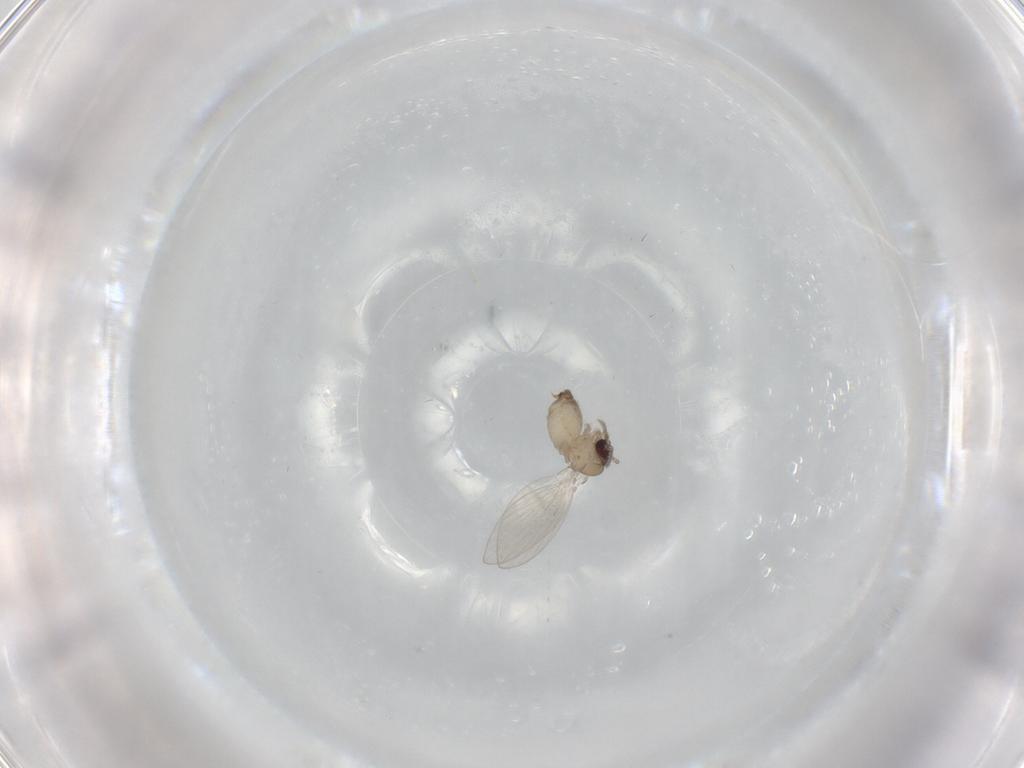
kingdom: Animalia
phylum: Arthropoda
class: Insecta
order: Diptera
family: Psychodidae
